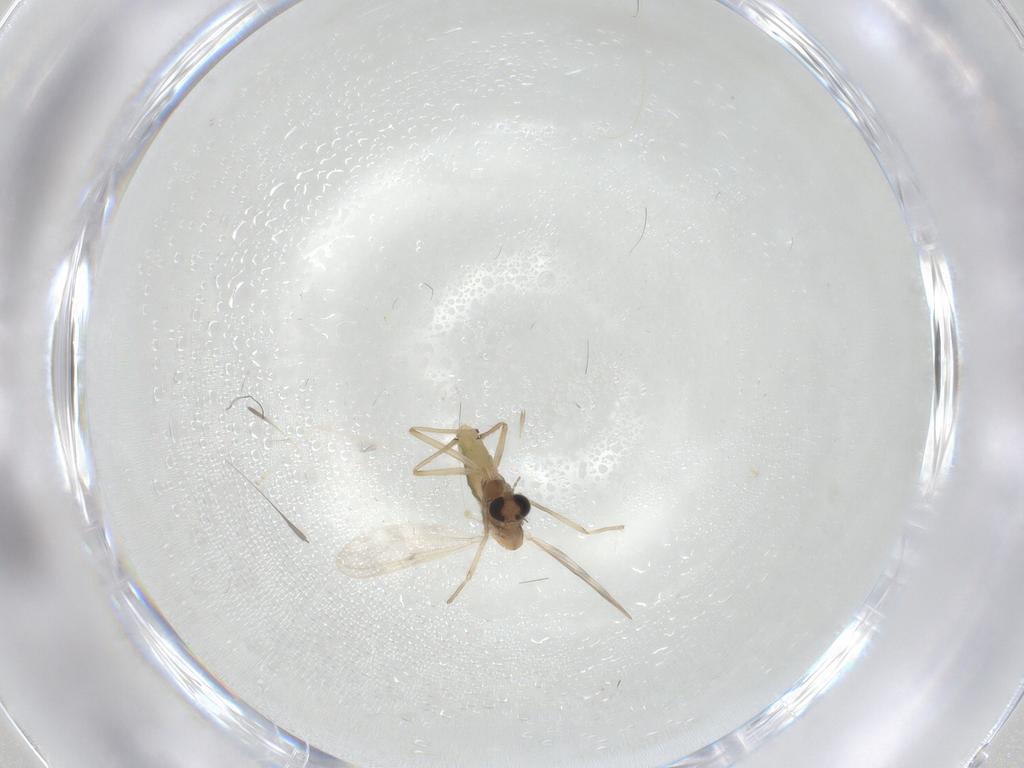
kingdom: Animalia
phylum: Arthropoda
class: Insecta
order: Diptera
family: Chironomidae
